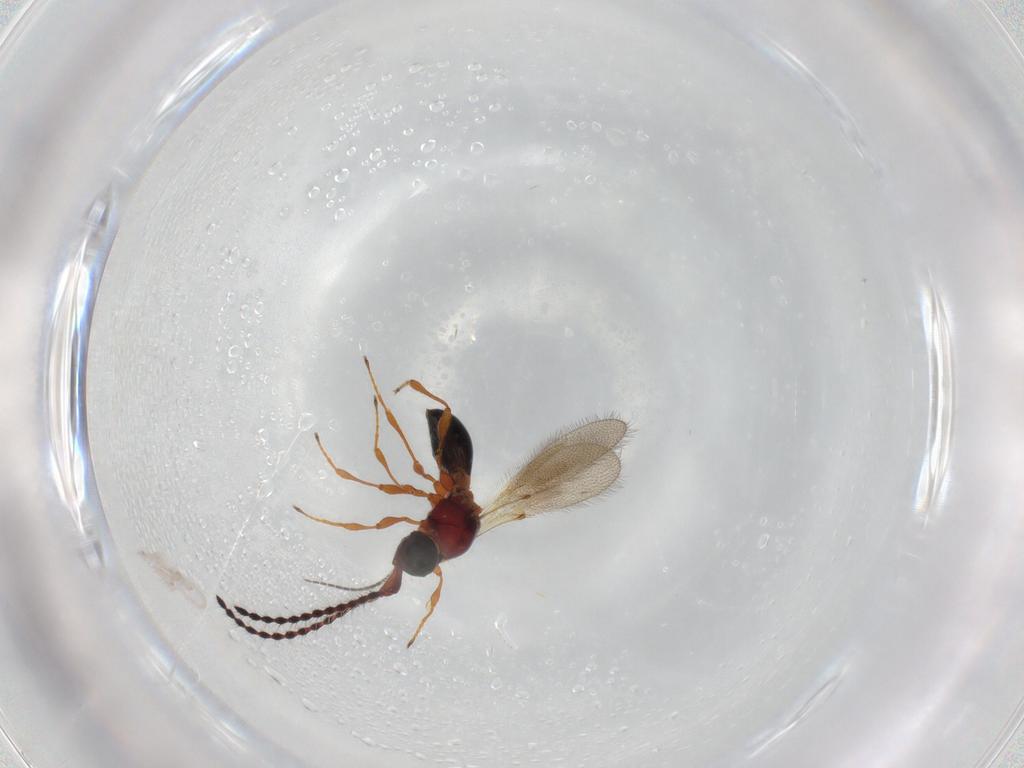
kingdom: Animalia
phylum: Arthropoda
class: Insecta
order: Hymenoptera
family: Diapriidae
